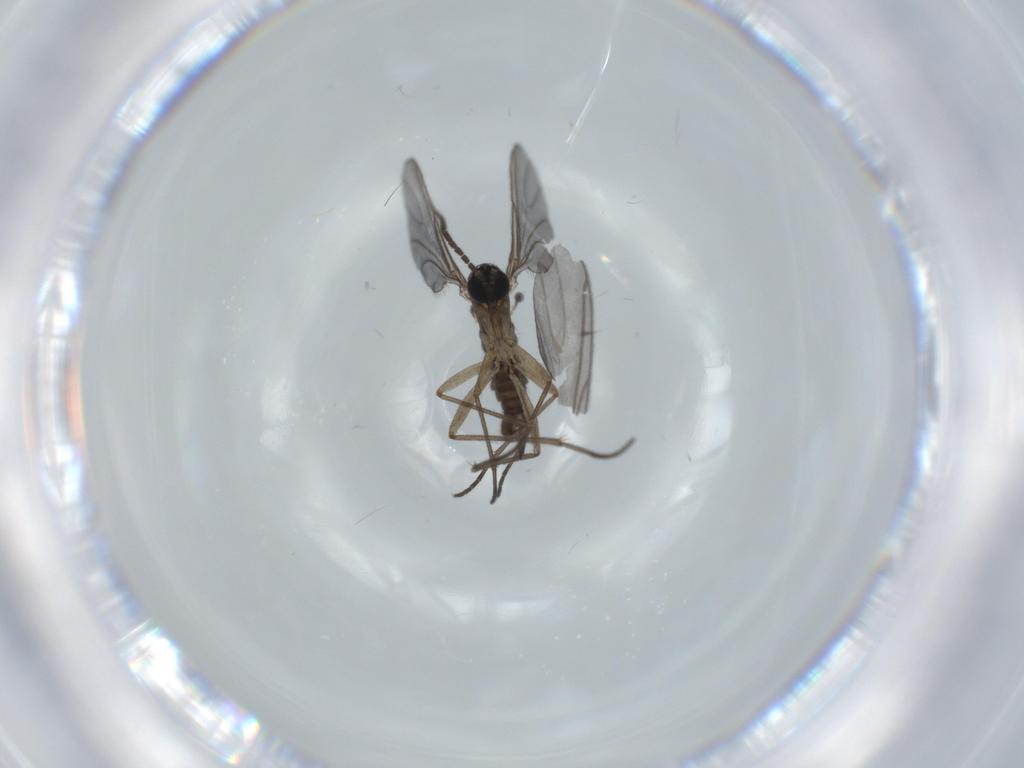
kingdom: Animalia
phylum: Arthropoda
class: Insecta
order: Diptera
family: Sciaridae
